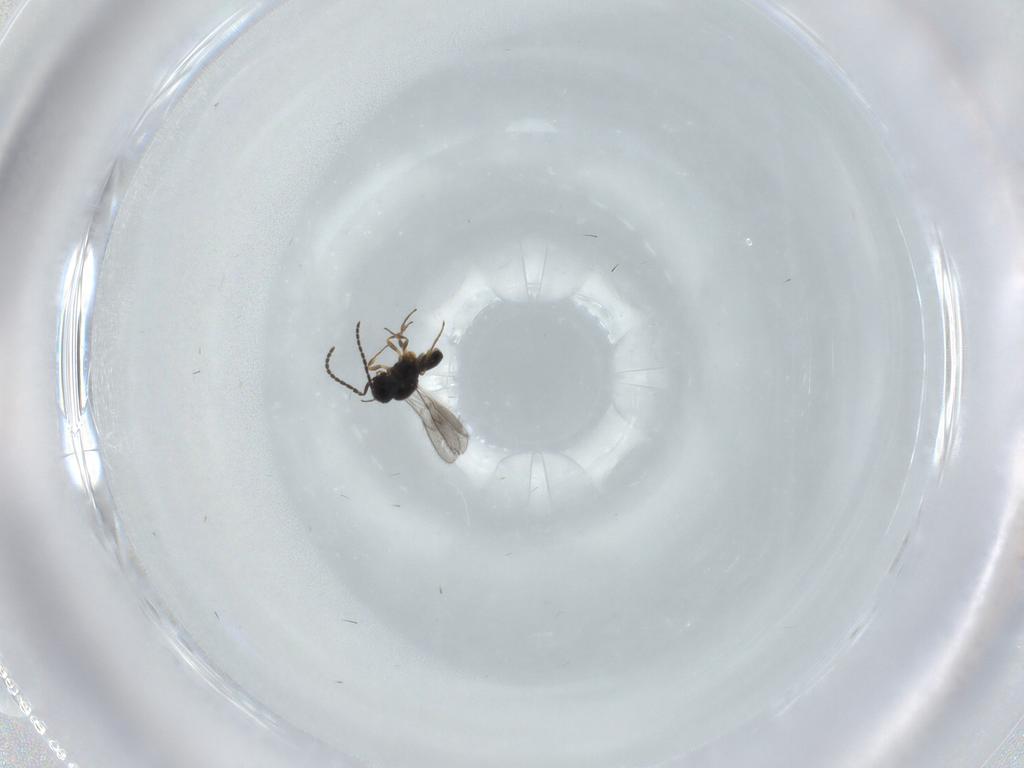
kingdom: Animalia
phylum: Arthropoda
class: Insecta
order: Hymenoptera
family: Scelionidae
